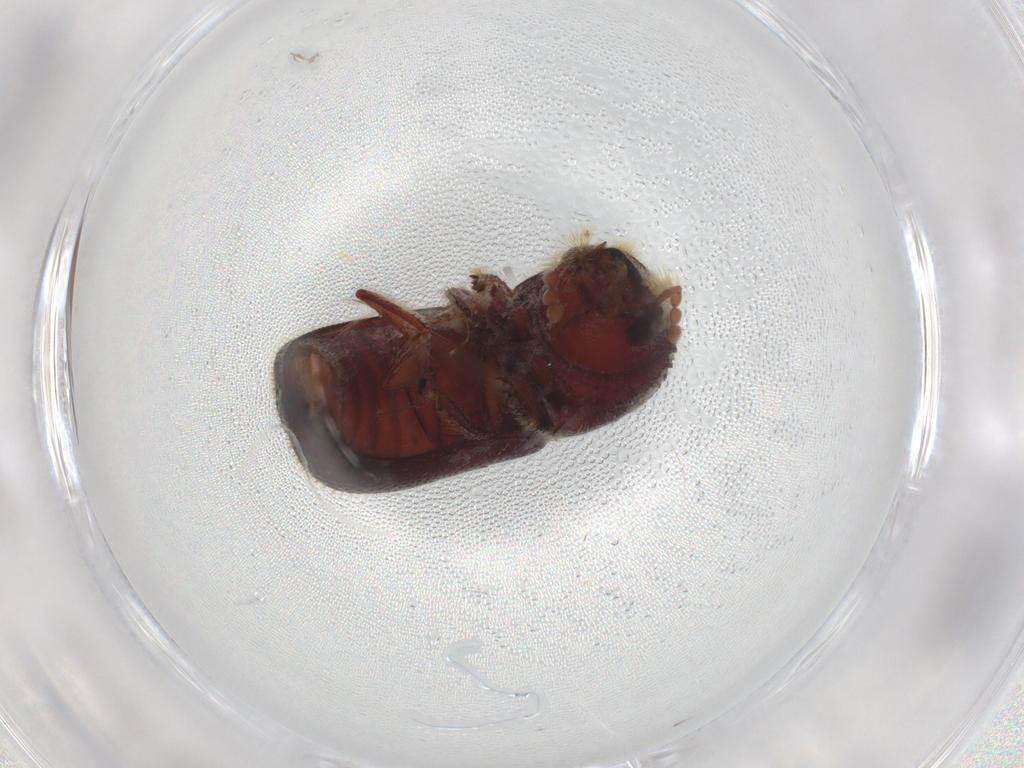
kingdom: Animalia
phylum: Arthropoda
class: Insecta
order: Coleoptera
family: Bostrichidae
